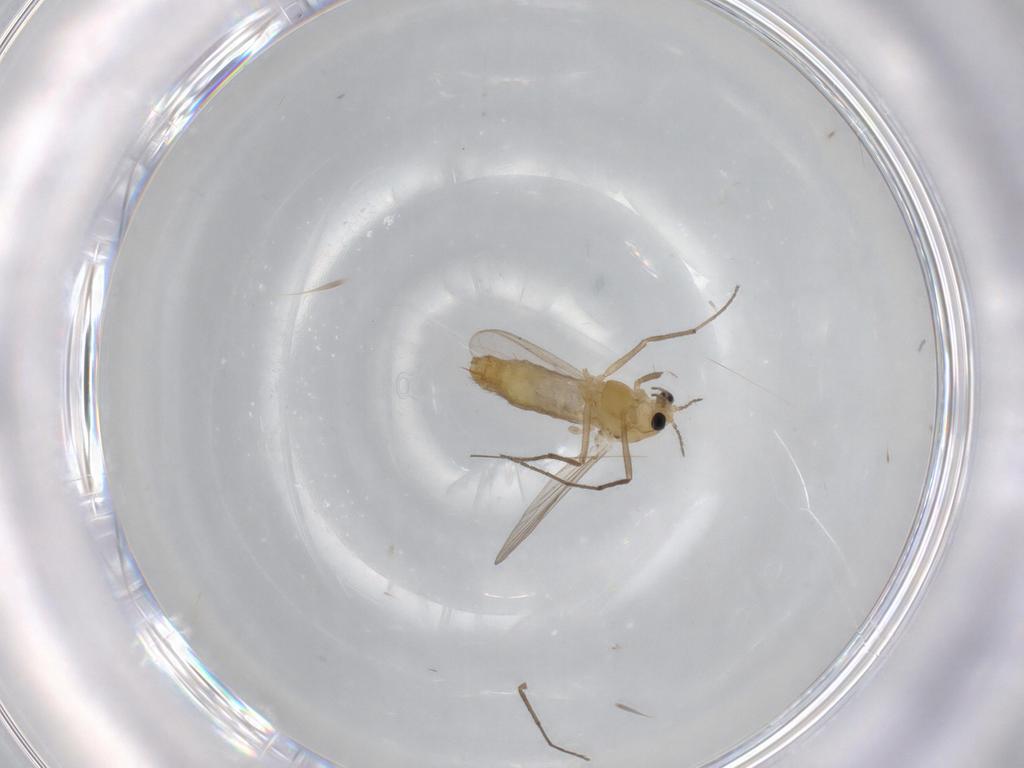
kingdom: Animalia
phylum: Arthropoda
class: Insecta
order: Diptera
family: Chironomidae
